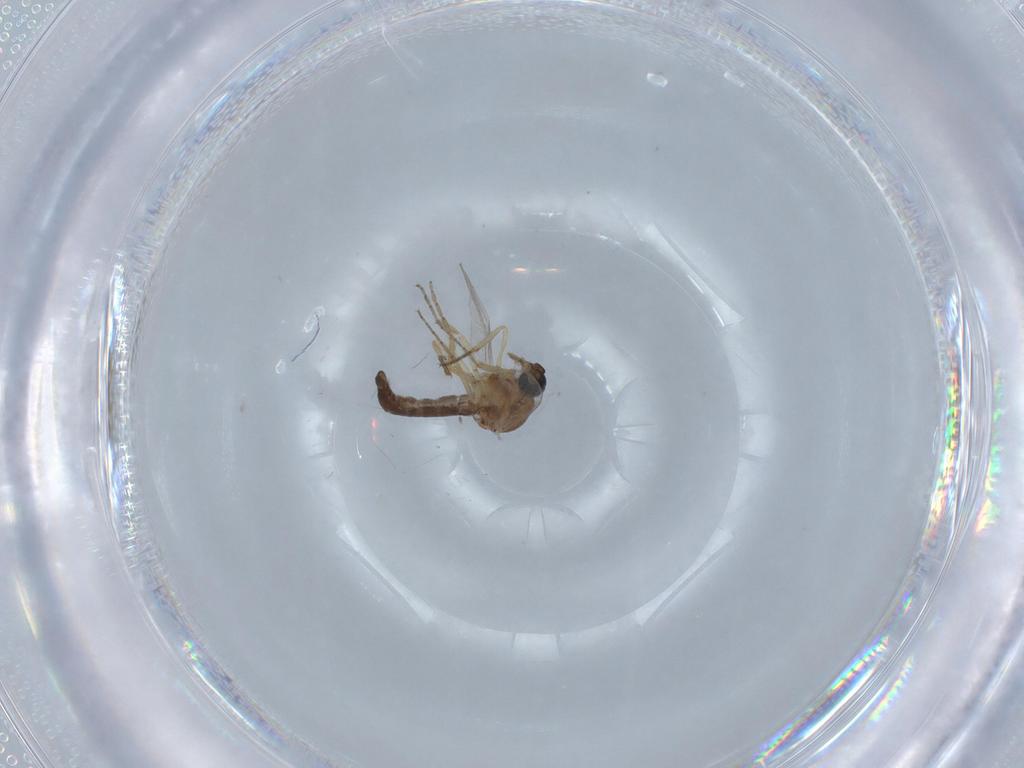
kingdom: Animalia
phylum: Arthropoda
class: Insecta
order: Diptera
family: Ceratopogonidae
